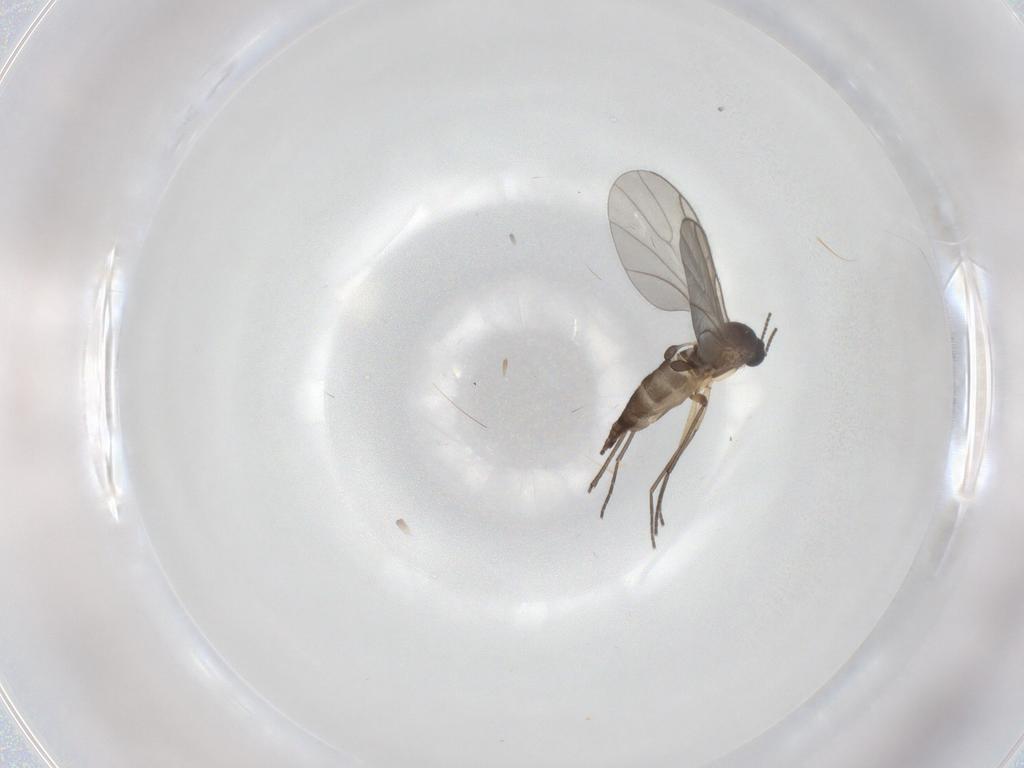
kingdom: Animalia
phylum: Arthropoda
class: Insecta
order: Diptera
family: Sciaridae
